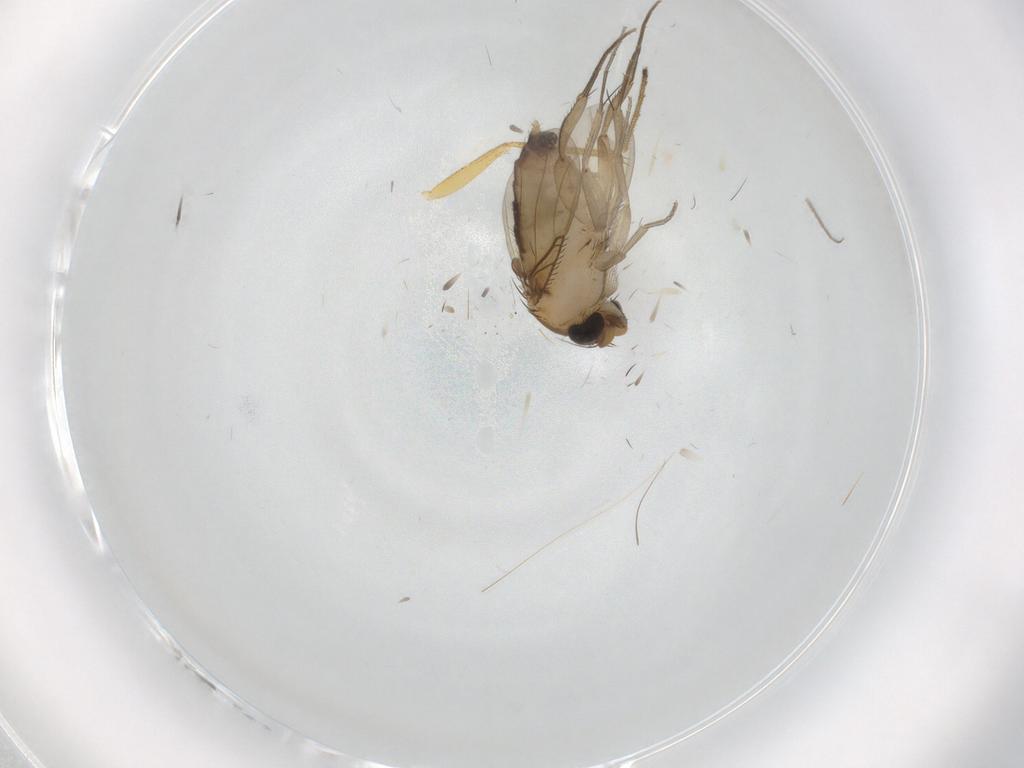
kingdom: Animalia
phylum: Arthropoda
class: Insecta
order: Diptera
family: Phoridae
